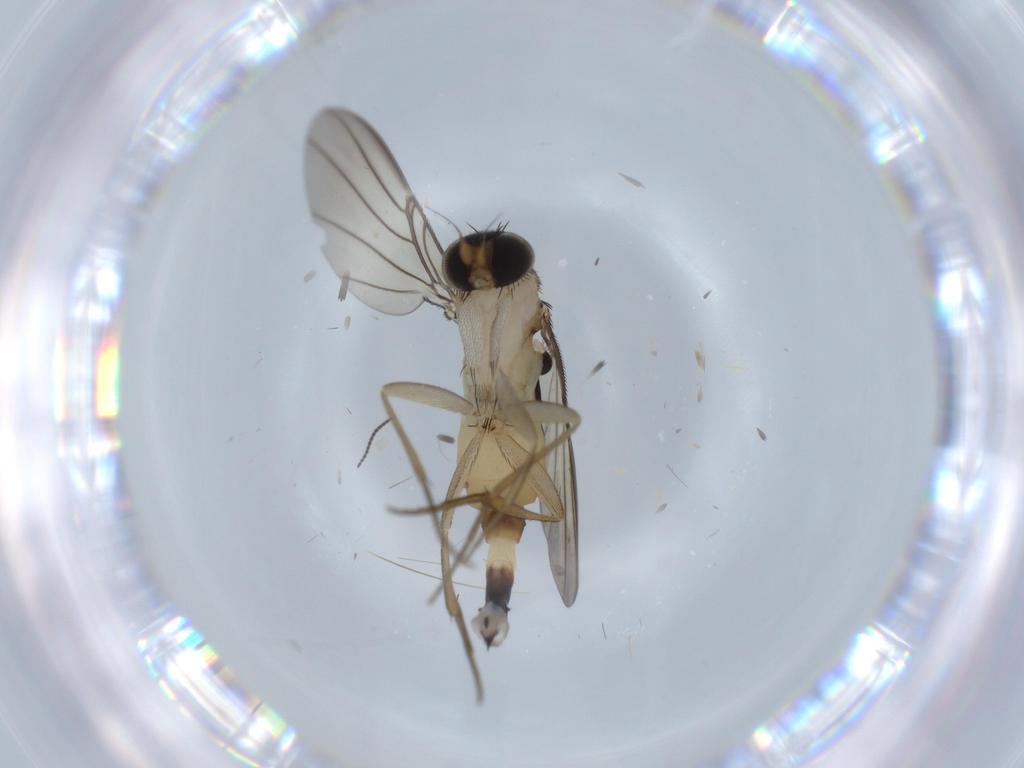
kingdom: Animalia
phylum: Arthropoda
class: Insecta
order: Diptera
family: Phoridae
